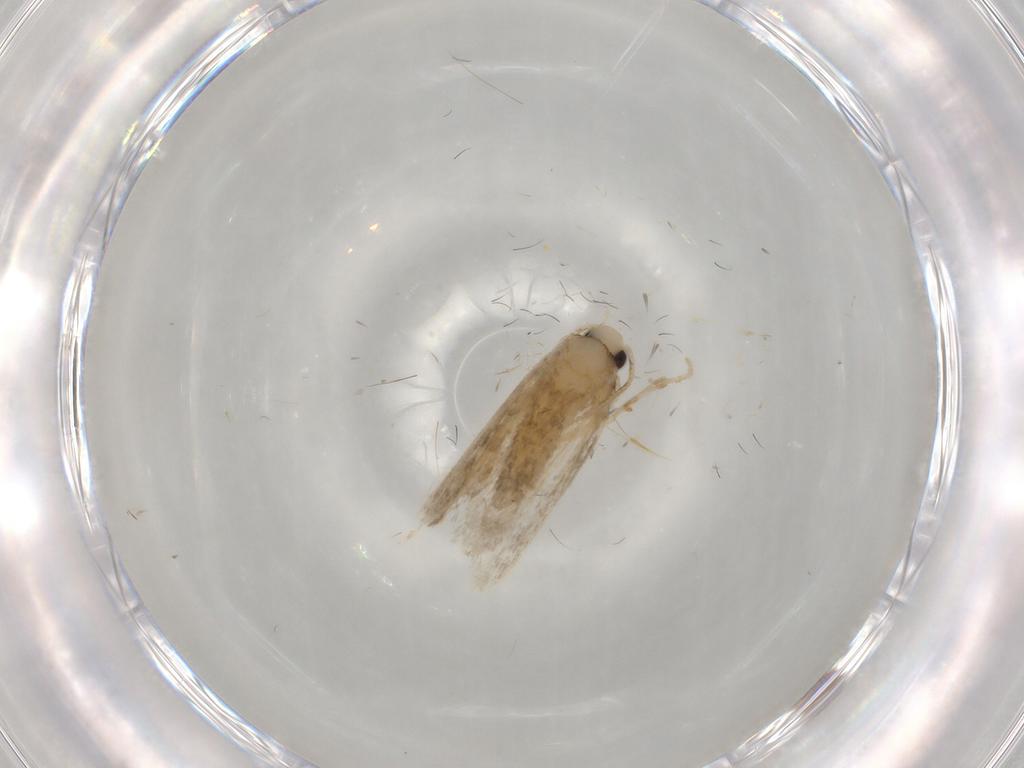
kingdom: Animalia
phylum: Arthropoda
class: Insecta
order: Lepidoptera
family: Psychidae
